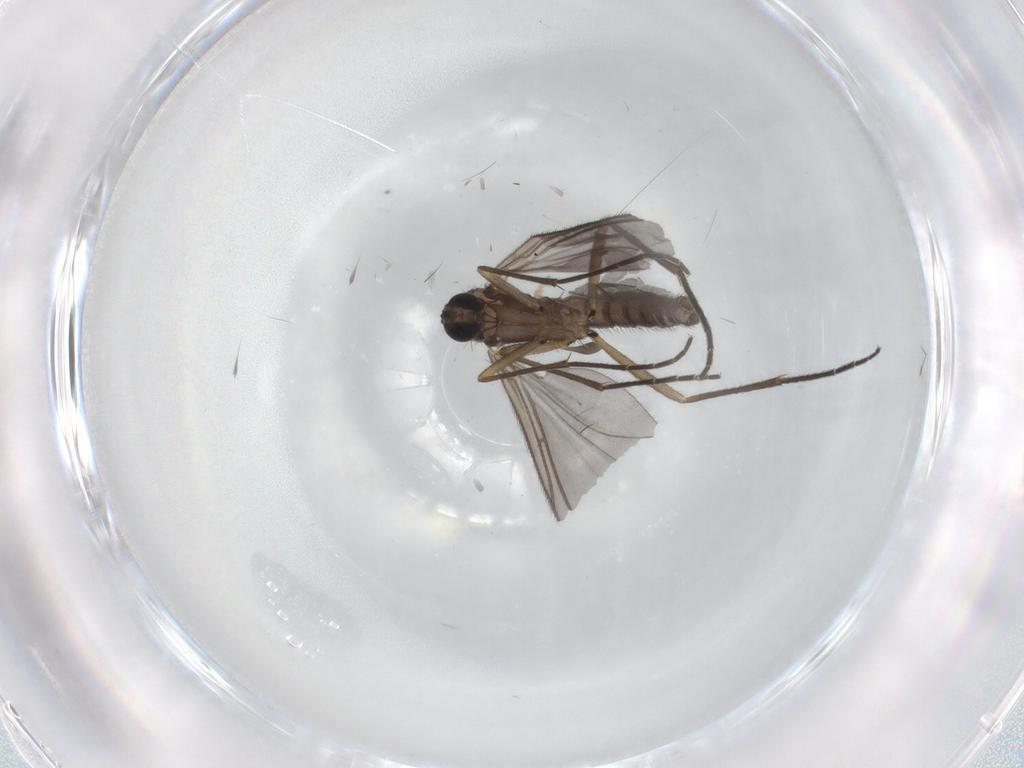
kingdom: Animalia
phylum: Arthropoda
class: Insecta
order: Diptera
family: Sciaridae
